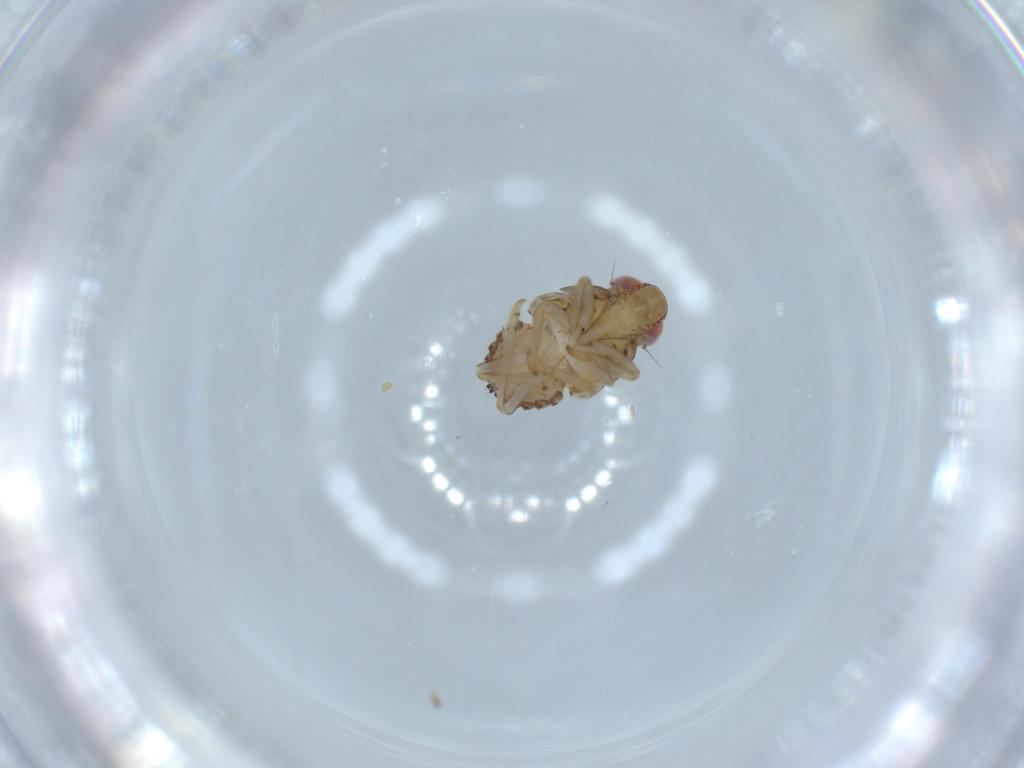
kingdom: Animalia
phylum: Arthropoda
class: Insecta
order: Hemiptera
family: Issidae
